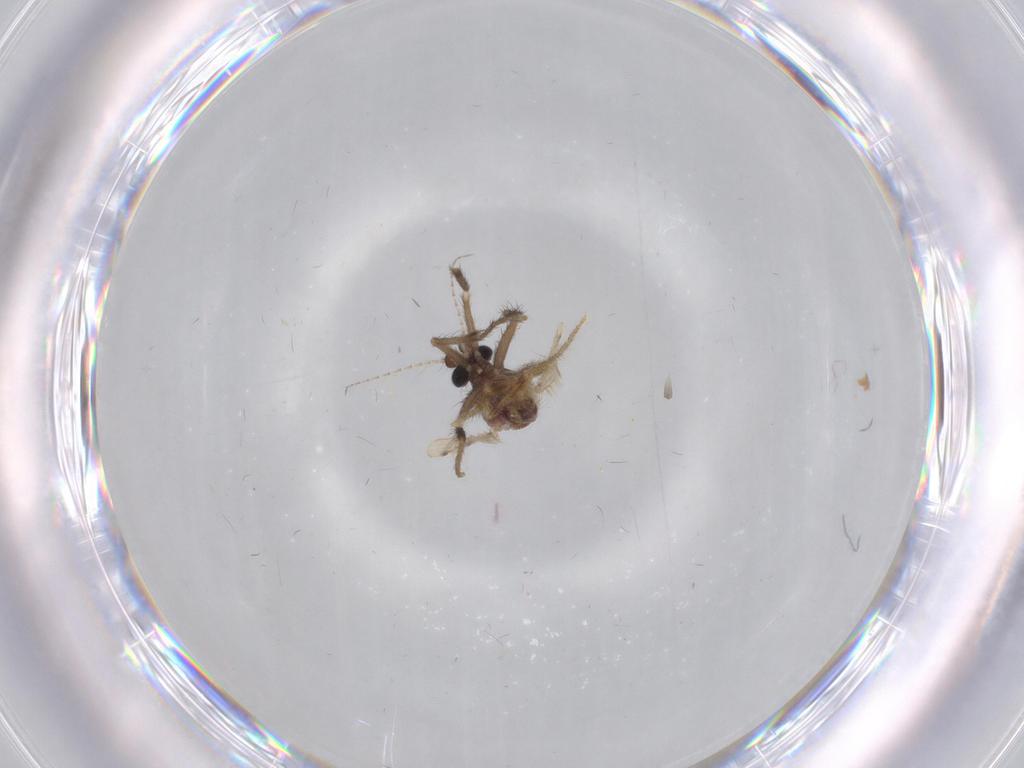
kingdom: Animalia
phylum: Arthropoda
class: Insecta
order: Diptera
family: Corethrellidae
